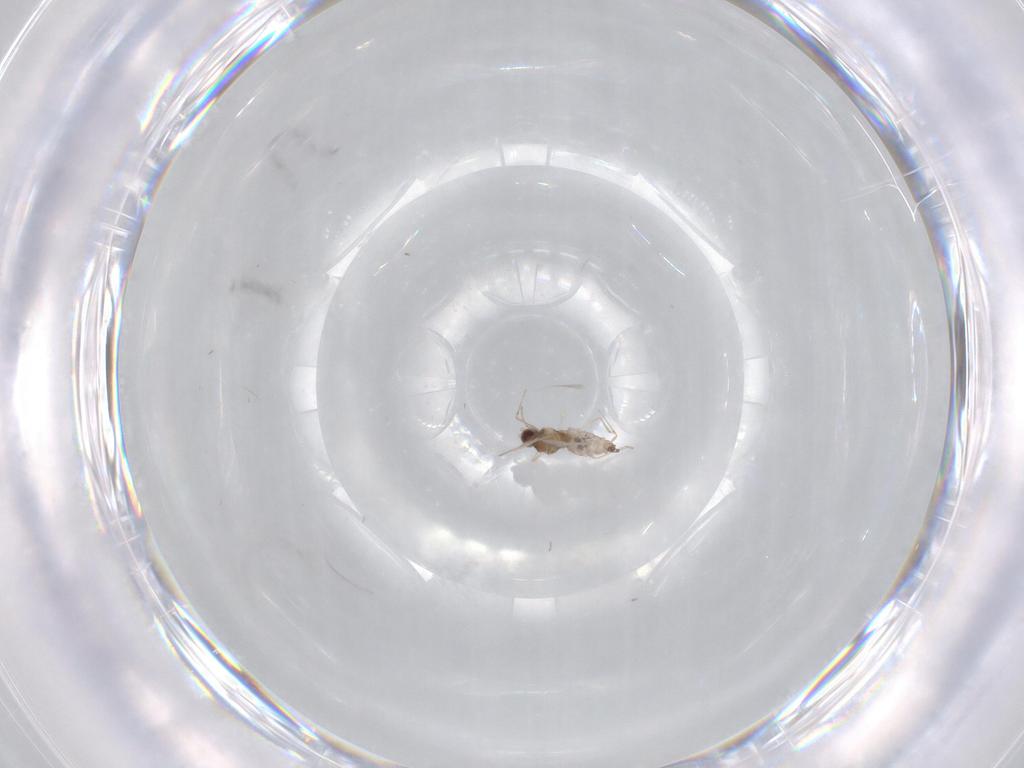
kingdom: Animalia
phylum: Arthropoda
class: Insecta
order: Diptera
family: Cecidomyiidae
